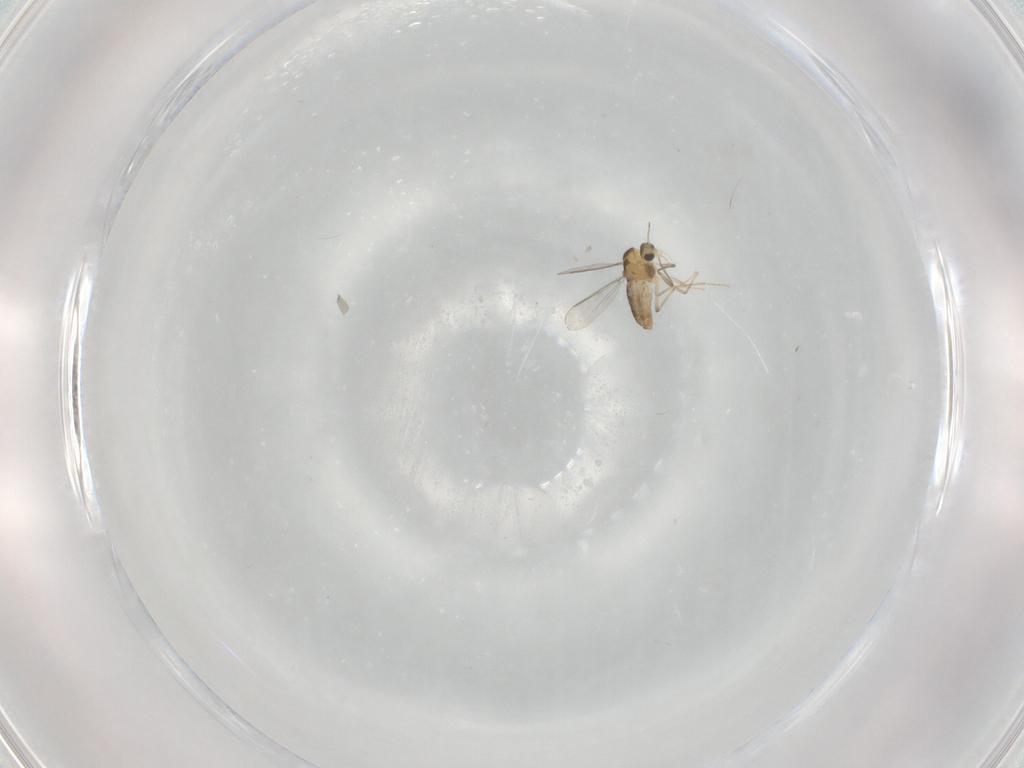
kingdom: Animalia
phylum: Arthropoda
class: Insecta
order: Diptera
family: Chironomidae
